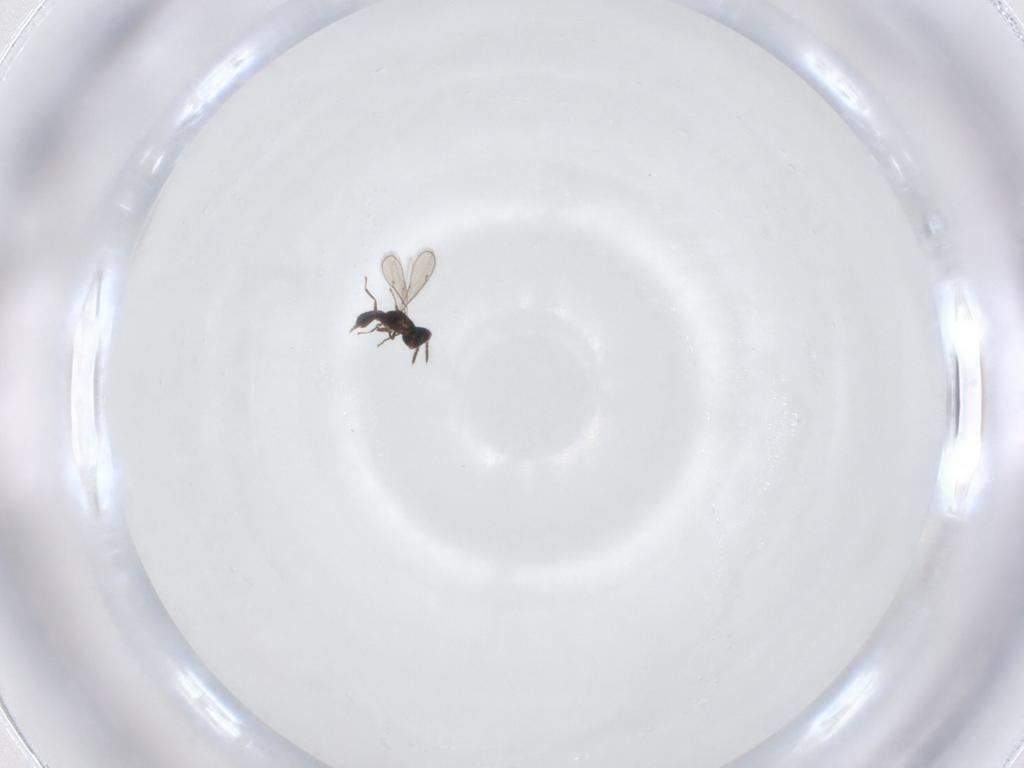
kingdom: Animalia
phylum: Arthropoda
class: Insecta
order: Hymenoptera
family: Eulophidae
